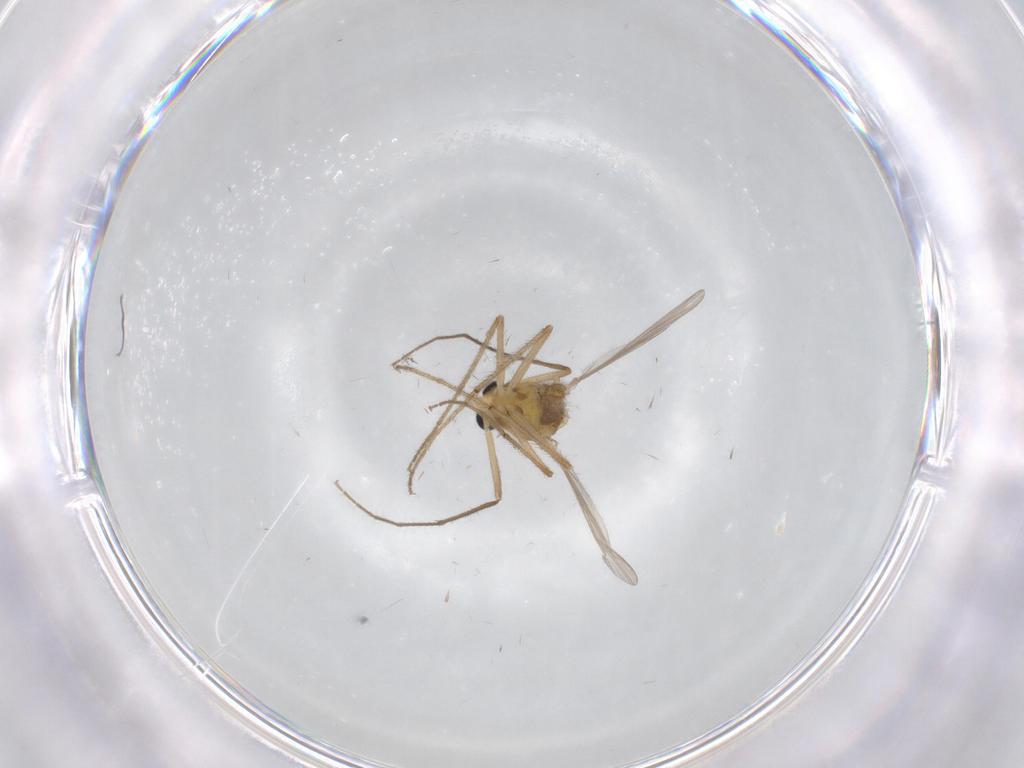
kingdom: Animalia
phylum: Arthropoda
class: Insecta
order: Diptera
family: Chironomidae
